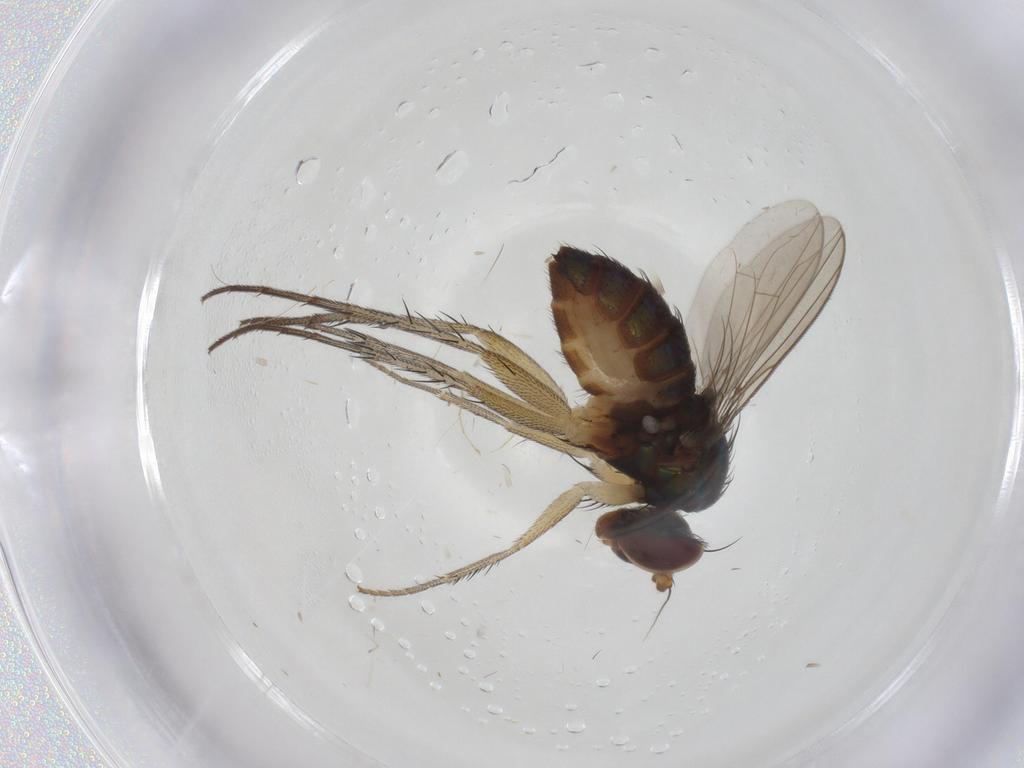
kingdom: Animalia
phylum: Arthropoda
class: Insecta
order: Diptera
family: Dolichopodidae
